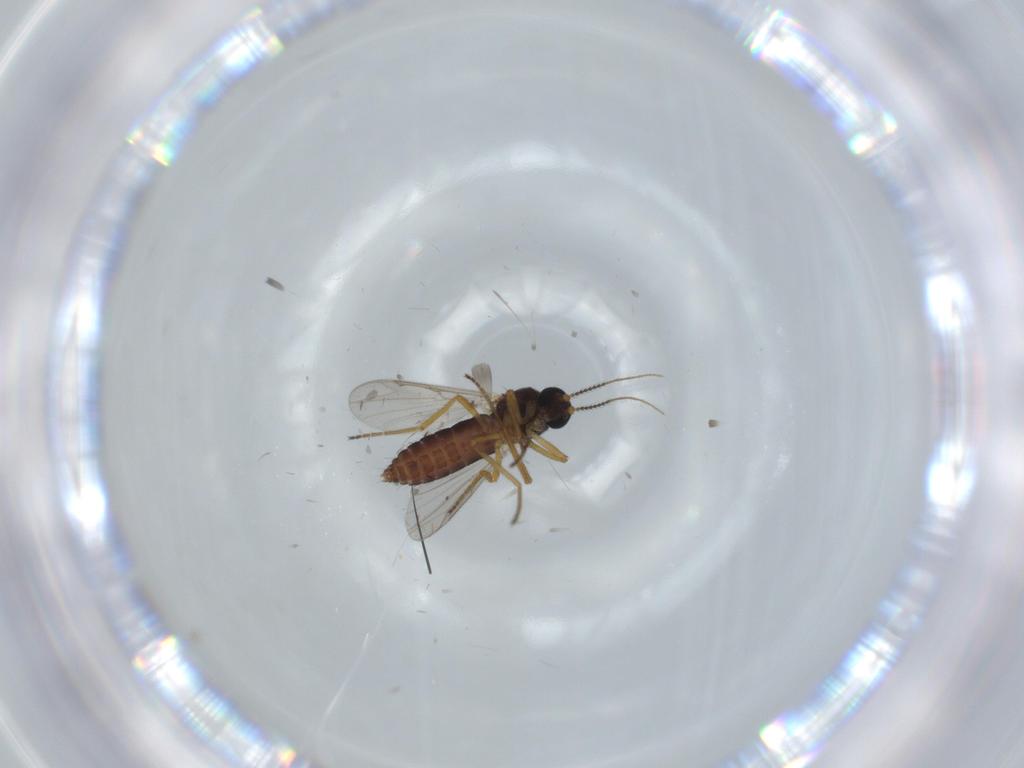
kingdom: Animalia
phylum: Arthropoda
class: Insecta
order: Diptera
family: Ceratopogonidae
